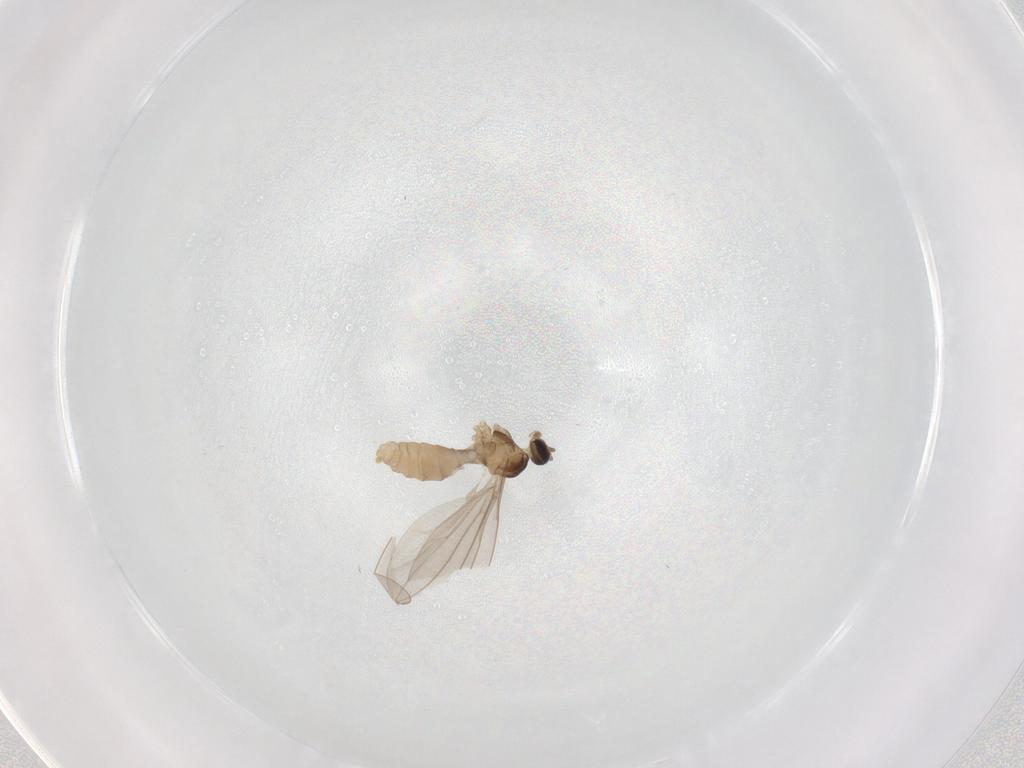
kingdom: Animalia
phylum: Arthropoda
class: Insecta
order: Diptera
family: Cecidomyiidae
